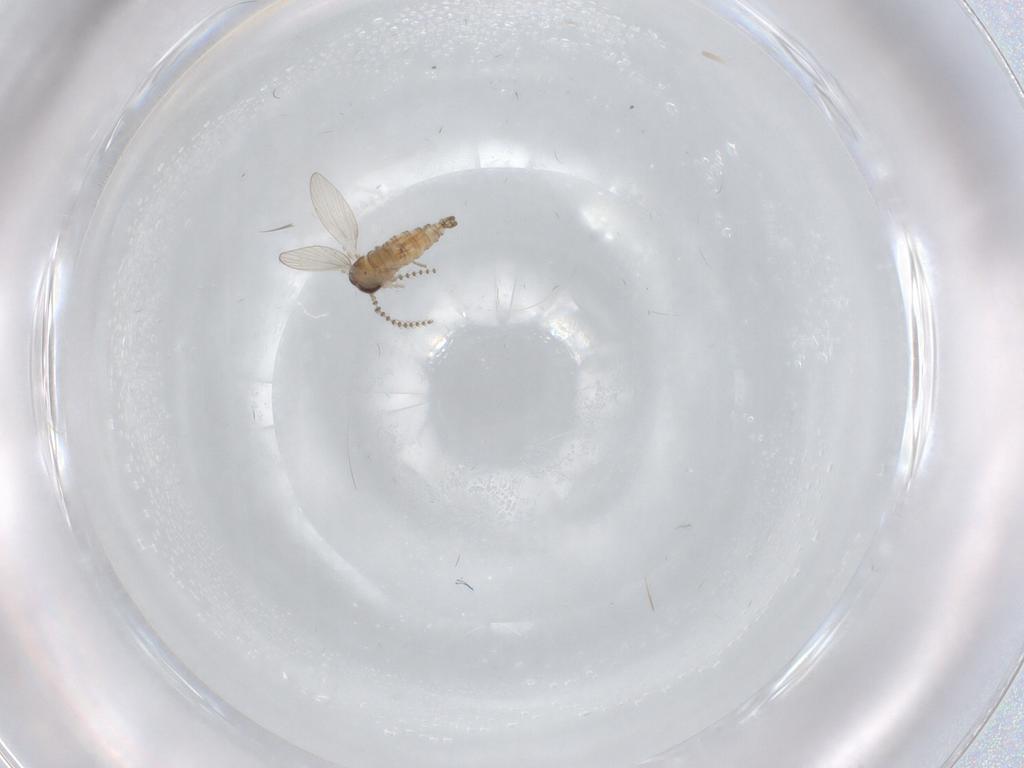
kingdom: Animalia
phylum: Arthropoda
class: Insecta
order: Diptera
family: Psychodidae
